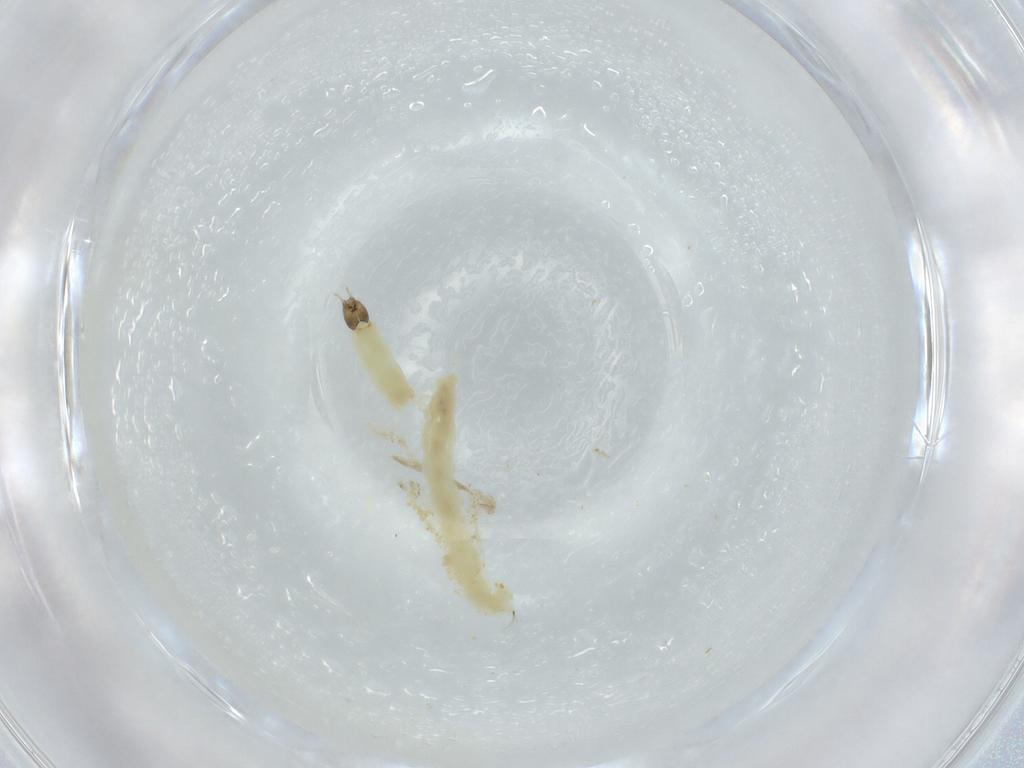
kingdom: Animalia
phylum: Arthropoda
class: Insecta
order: Diptera
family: Chironomidae
